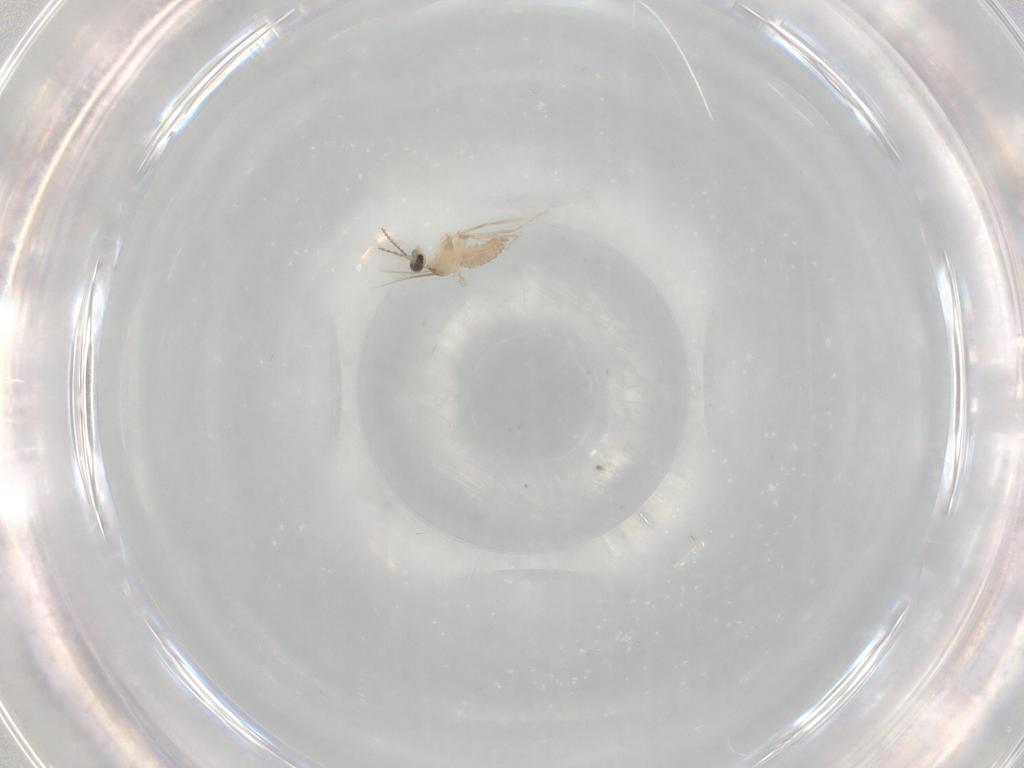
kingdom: Animalia
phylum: Arthropoda
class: Insecta
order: Diptera
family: Cecidomyiidae
